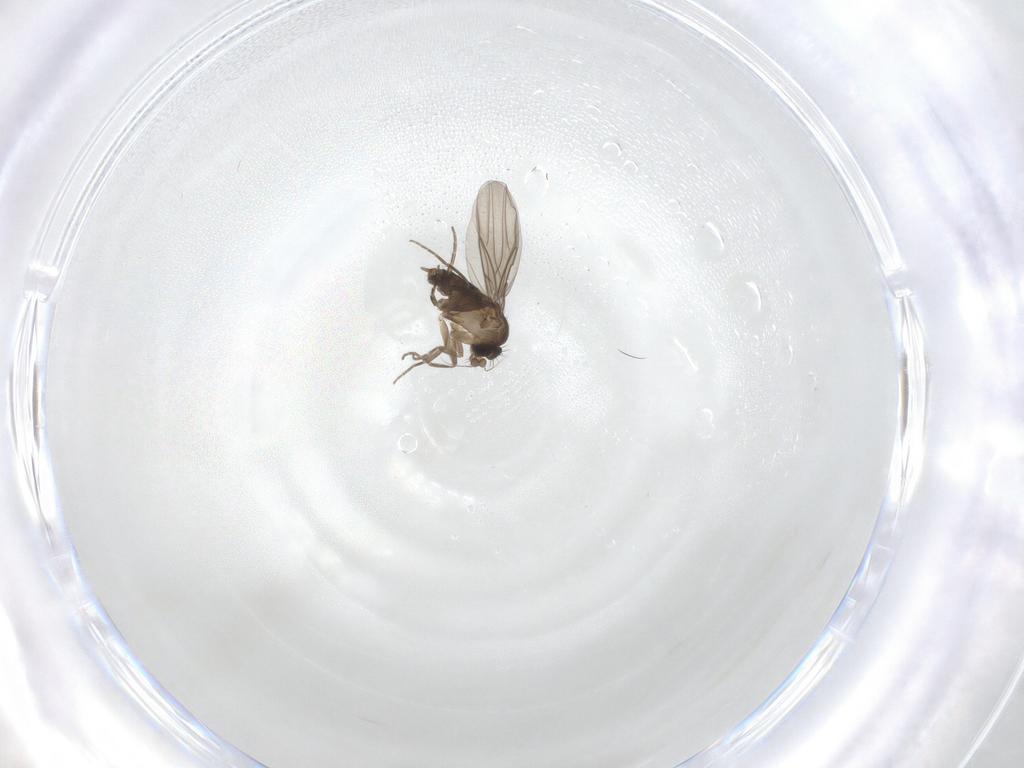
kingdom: Animalia
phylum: Arthropoda
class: Insecta
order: Diptera
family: Phoridae
